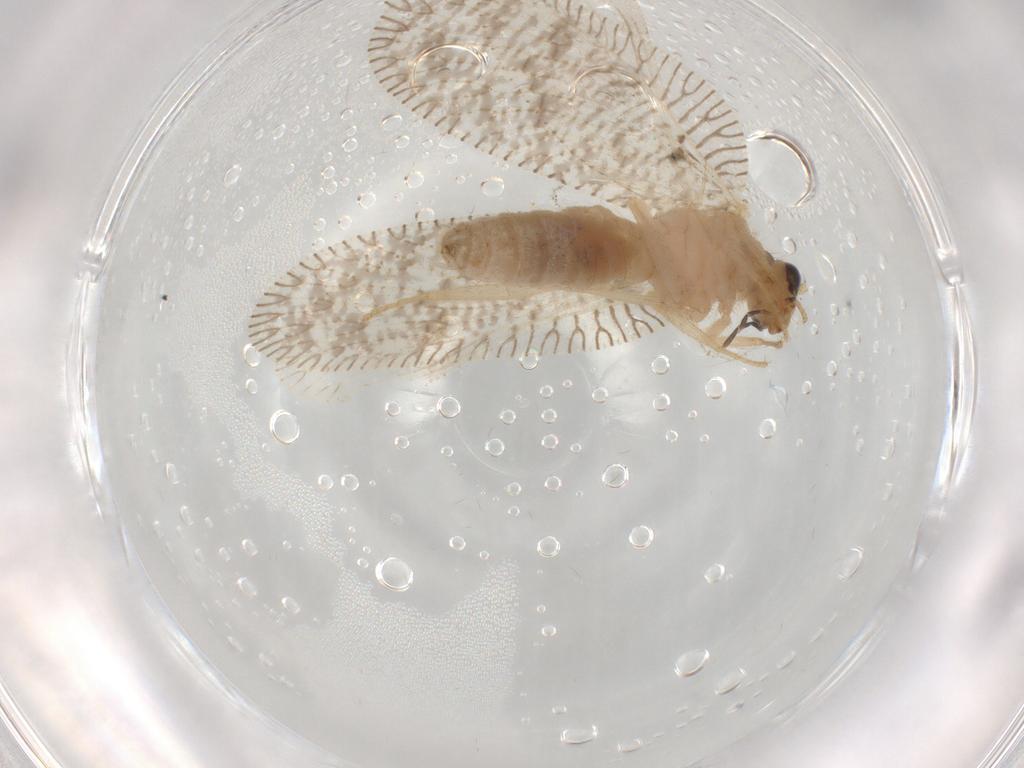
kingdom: Animalia
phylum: Arthropoda
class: Insecta
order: Neuroptera
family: Hemerobiidae
